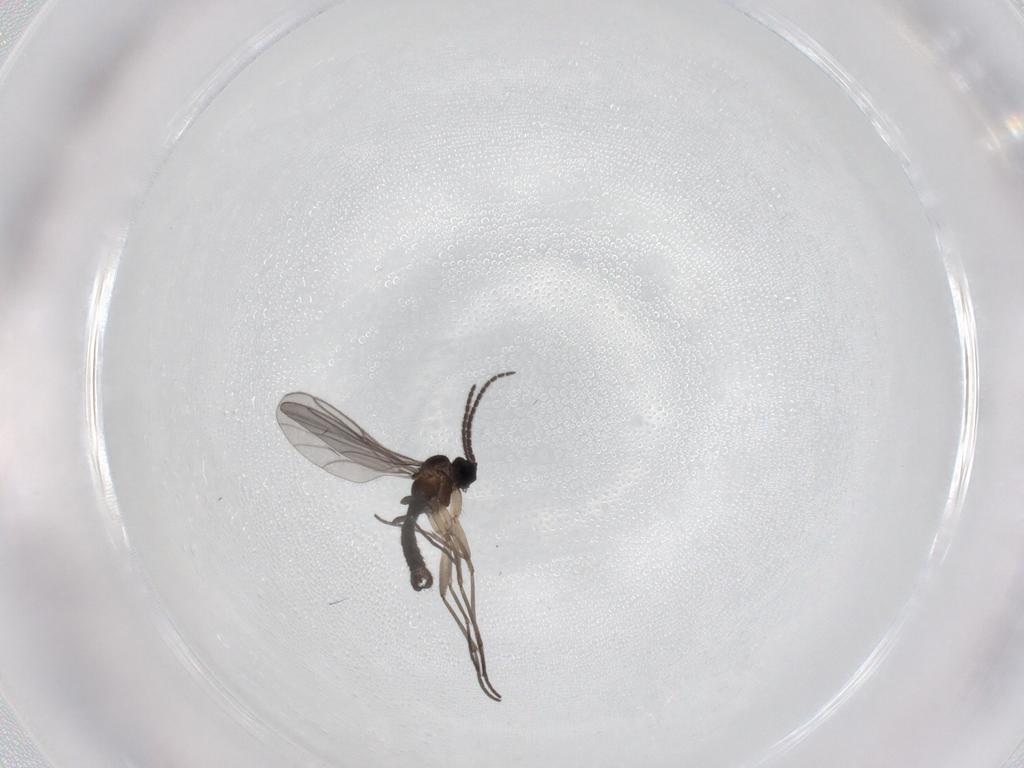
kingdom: Animalia
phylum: Arthropoda
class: Insecta
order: Diptera
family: Sciaridae
